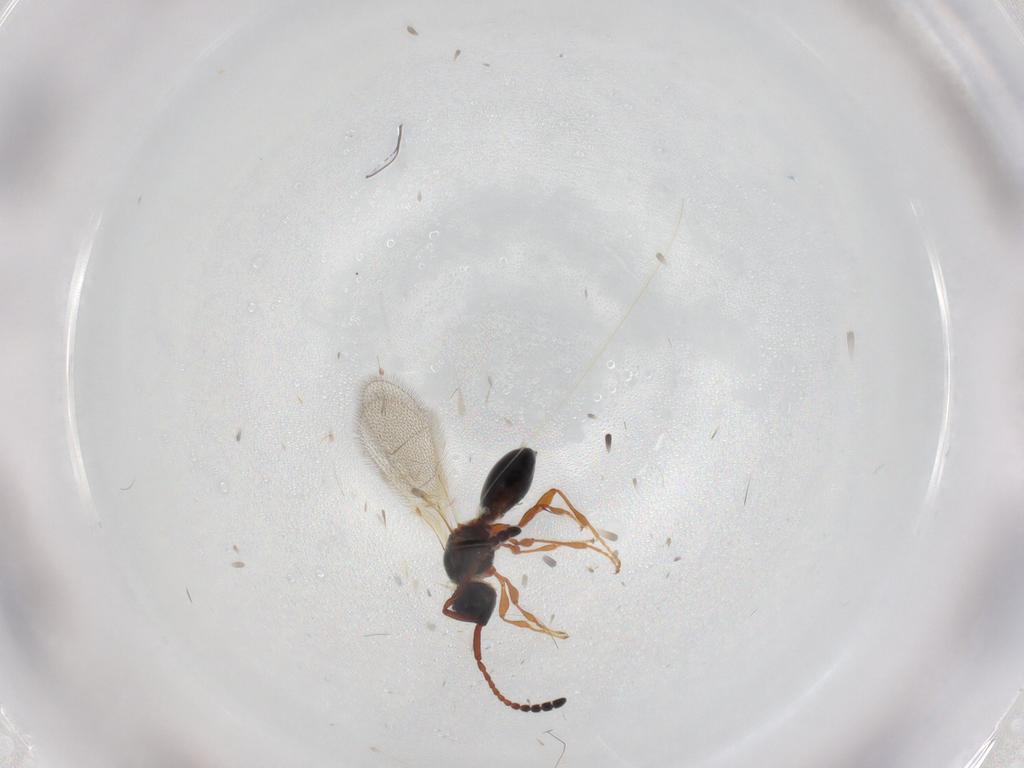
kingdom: Animalia
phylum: Arthropoda
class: Insecta
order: Hymenoptera
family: Diapriidae
